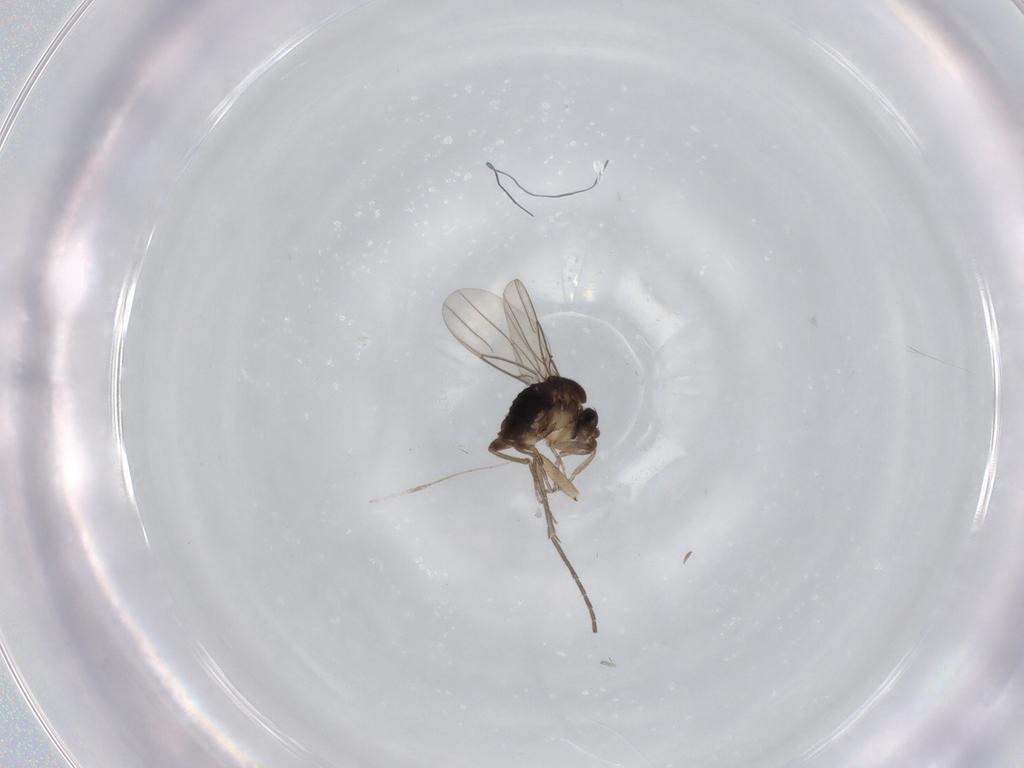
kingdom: Animalia
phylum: Arthropoda
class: Insecta
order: Diptera
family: Phoridae
